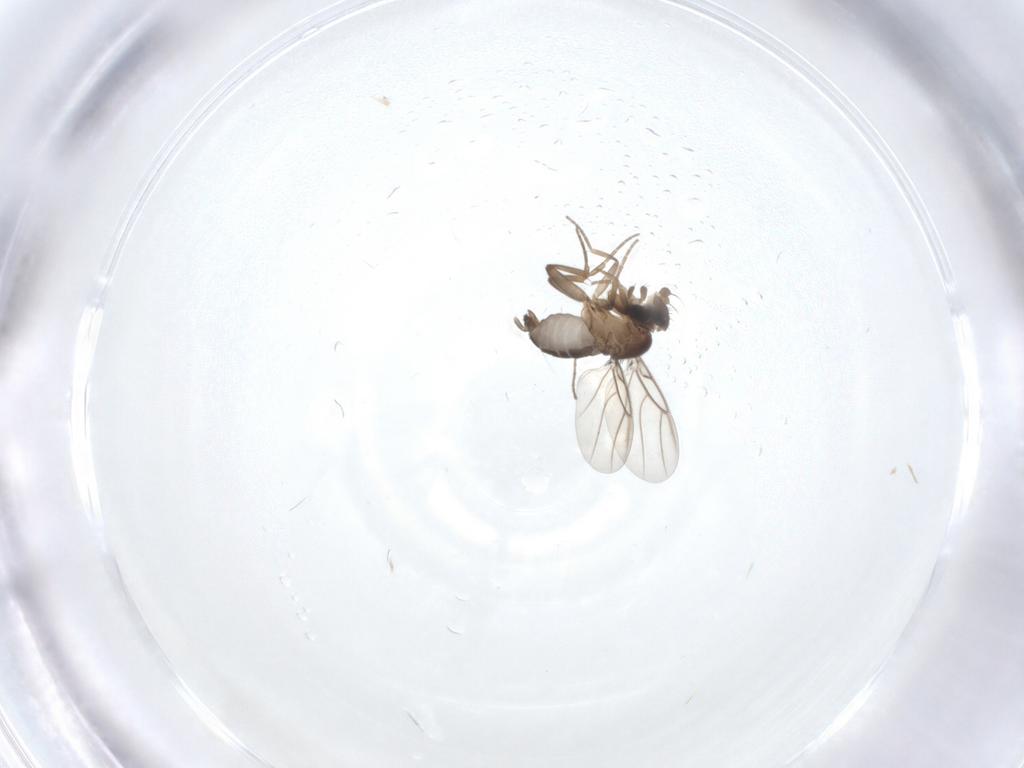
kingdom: Animalia
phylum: Arthropoda
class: Insecta
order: Diptera
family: Phoridae
